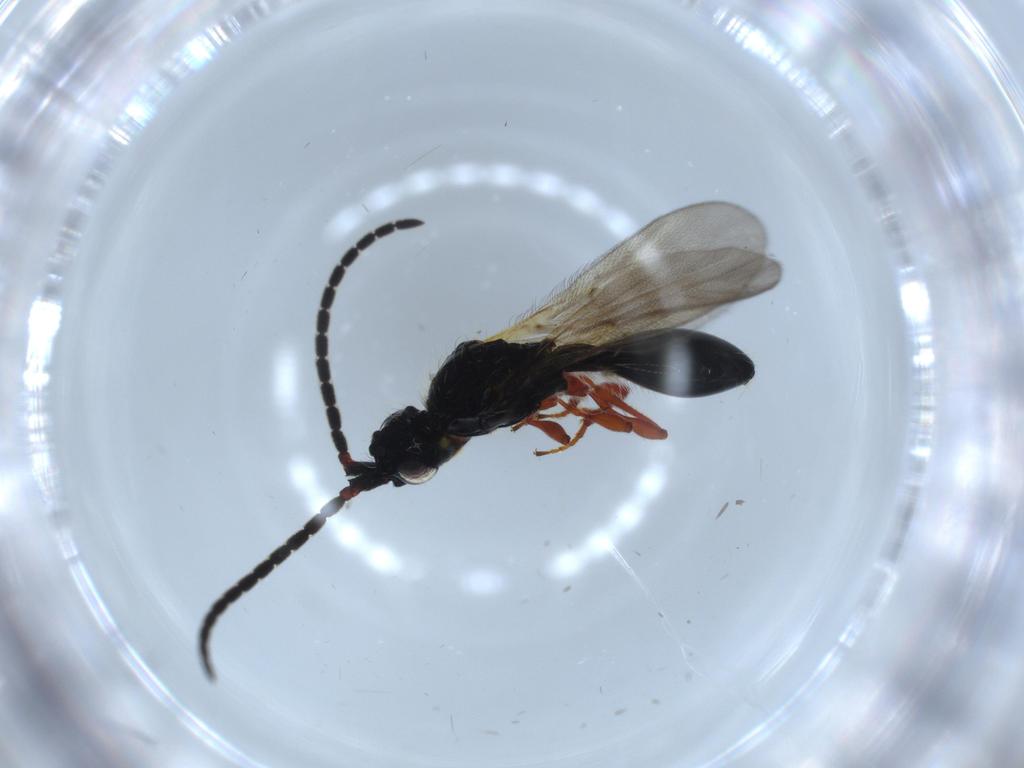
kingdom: Animalia
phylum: Arthropoda
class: Insecta
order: Hymenoptera
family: Diapriidae
